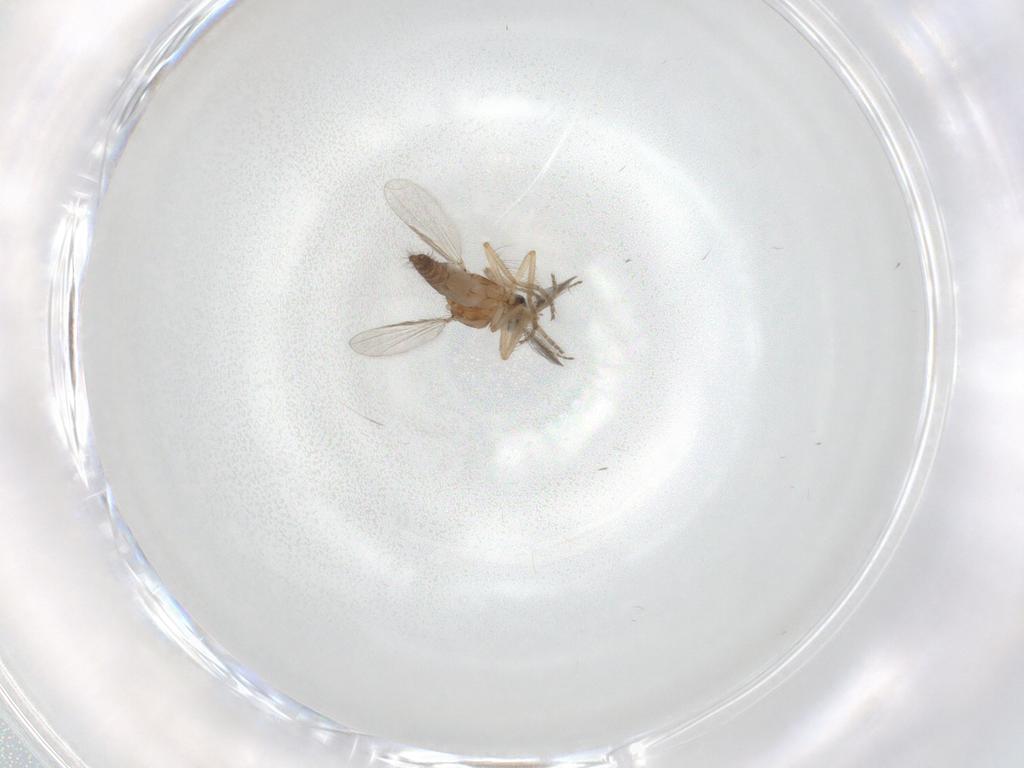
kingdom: Animalia
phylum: Arthropoda
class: Insecta
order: Diptera
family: Ceratopogonidae
